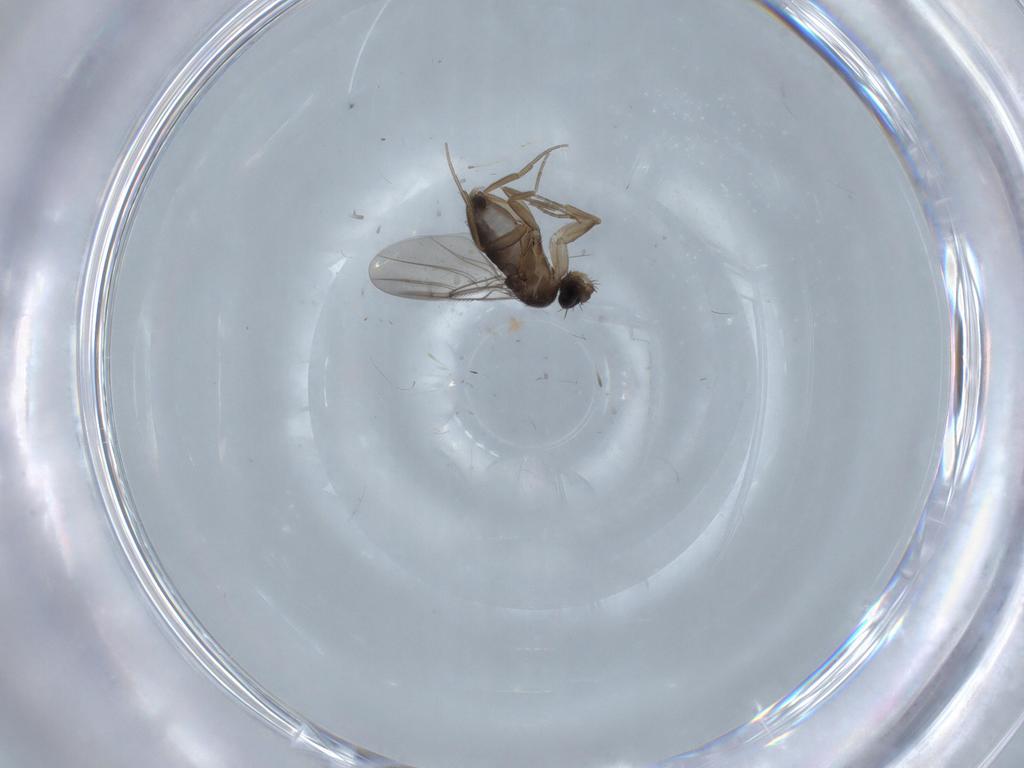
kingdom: Animalia
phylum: Arthropoda
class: Insecta
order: Diptera
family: Phoridae
